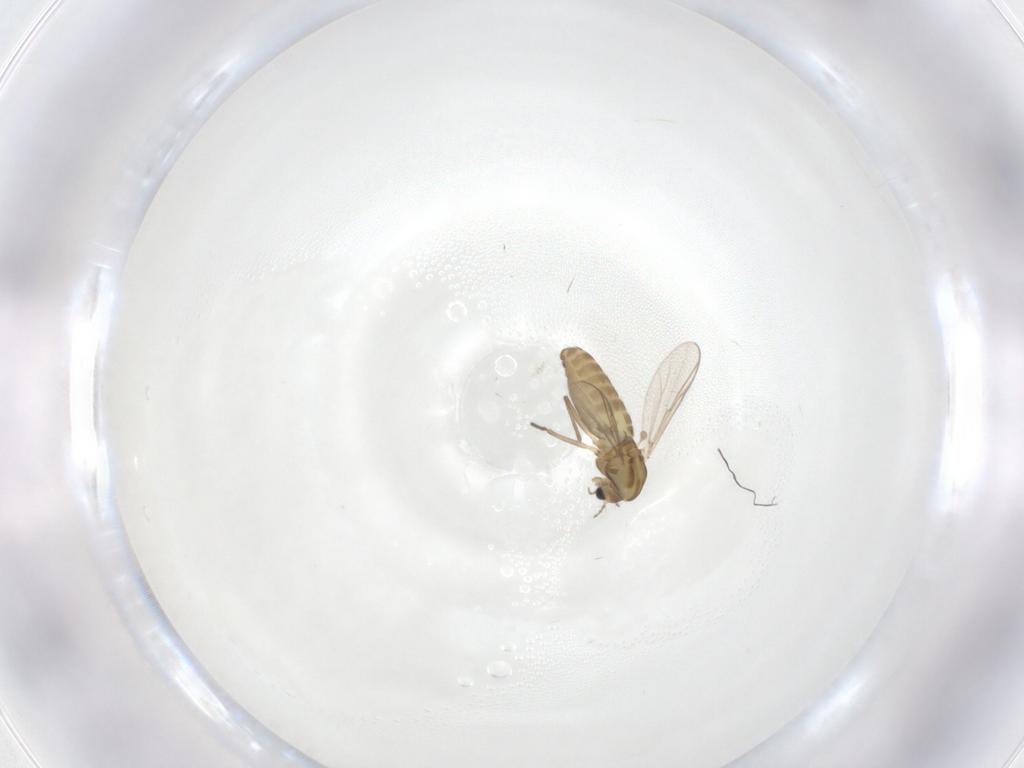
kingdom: Animalia
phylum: Arthropoda
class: Insecta
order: Diptera
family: Chironomidae
